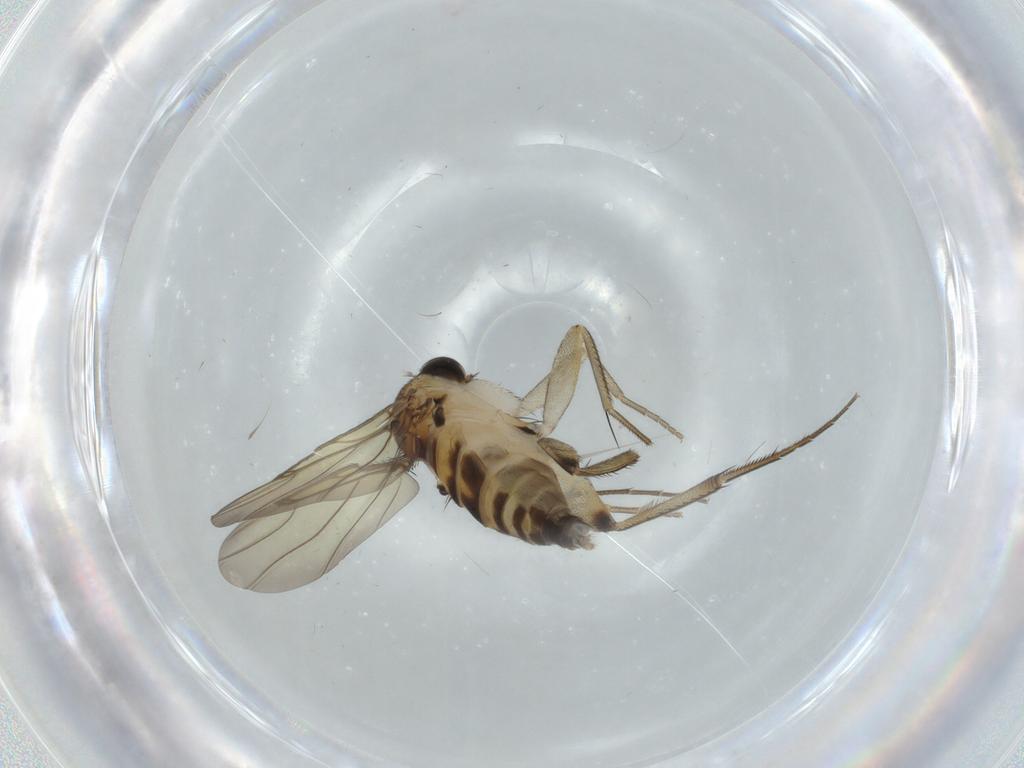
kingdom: Animalia
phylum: Arthropoda
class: Insecta
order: Diptera
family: Phoridae
